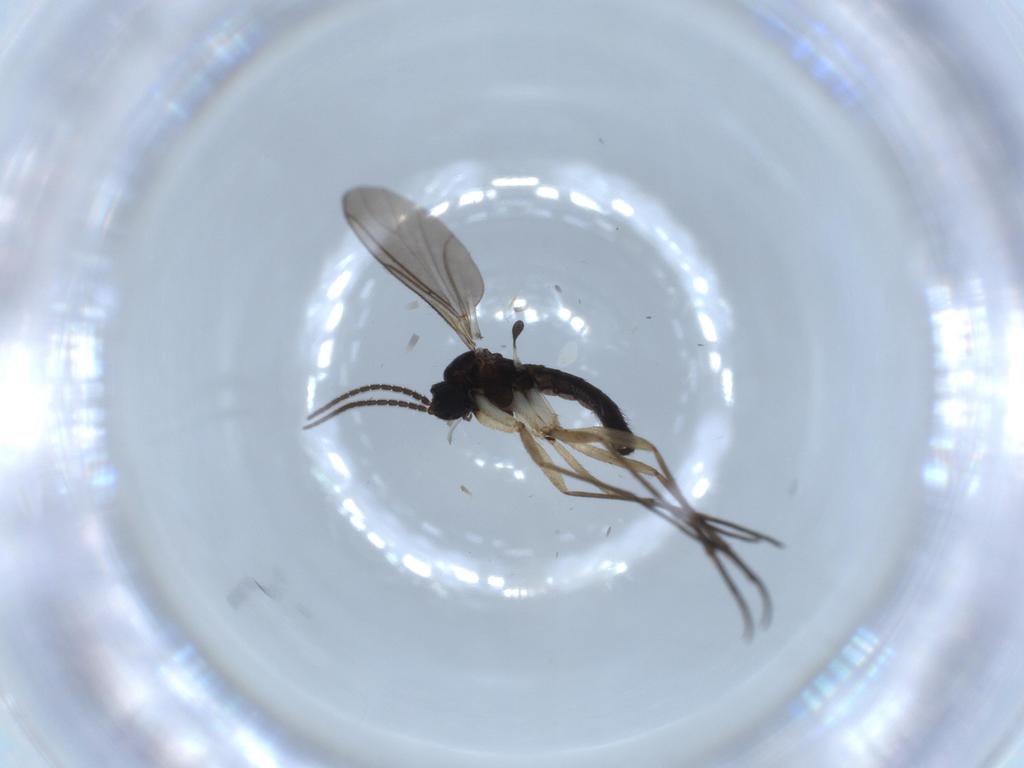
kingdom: Animalia
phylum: Arthropoda
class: Insecta
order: Diptera
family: Sciaridae
